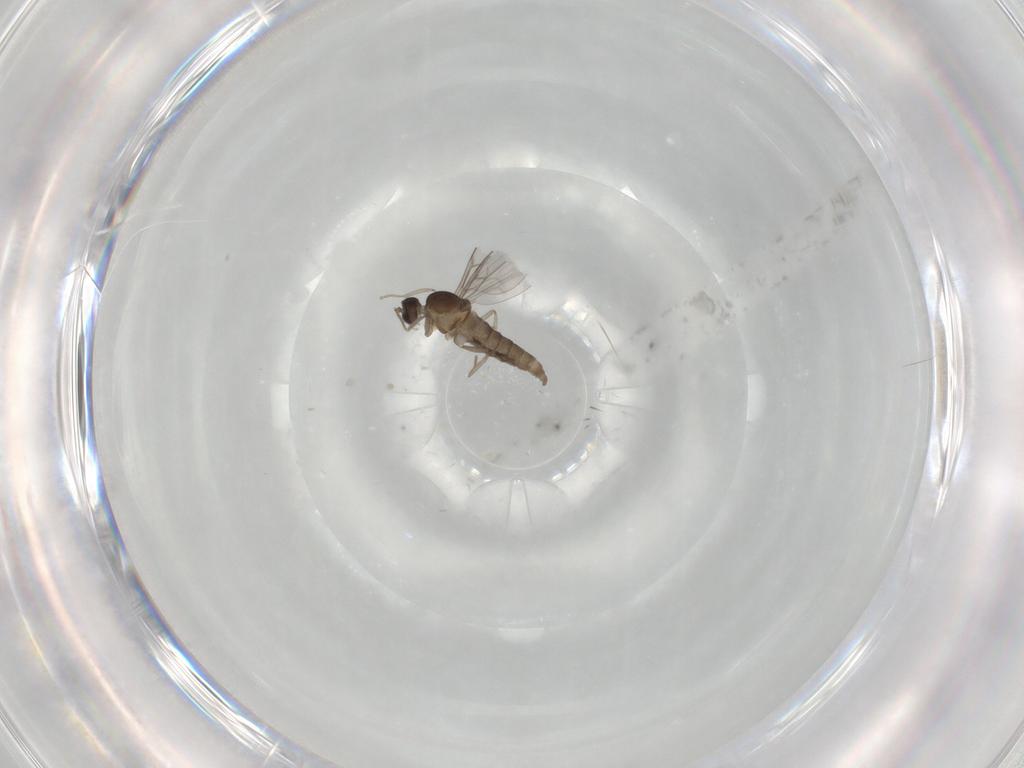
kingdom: Animalia
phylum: Arthropoda
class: Insecta
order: Diptera
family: Cecidomyiidae
